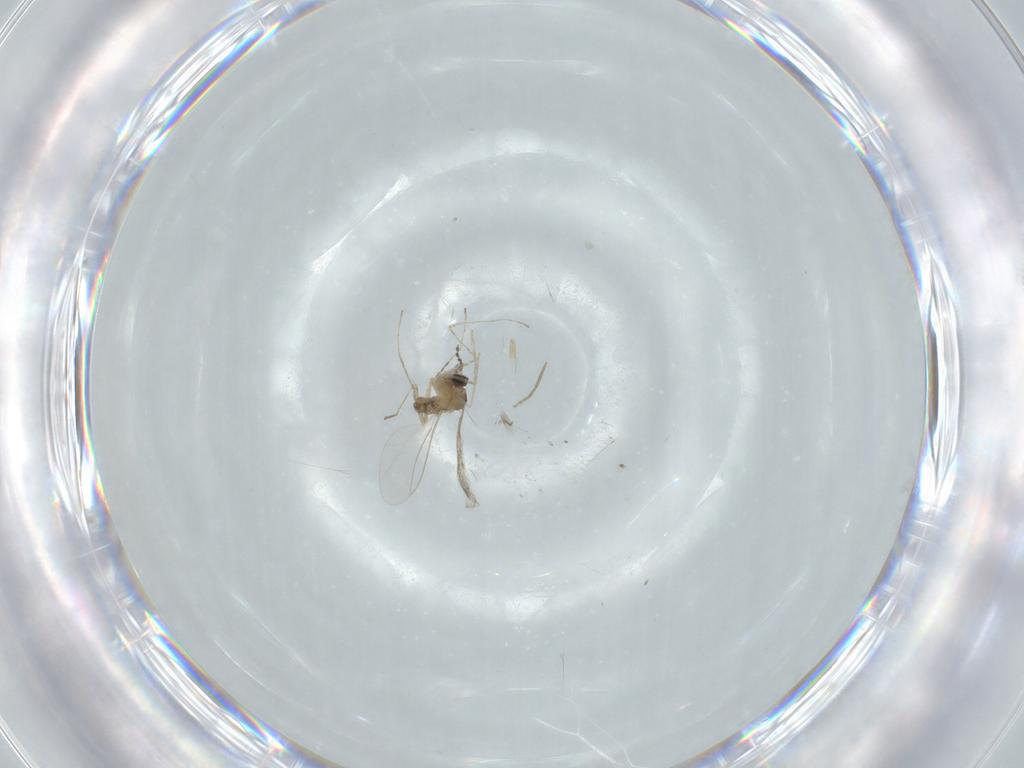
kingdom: Animalia
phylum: Arthropoda
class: Insecta
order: Diptera
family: Cecidomyiidae
